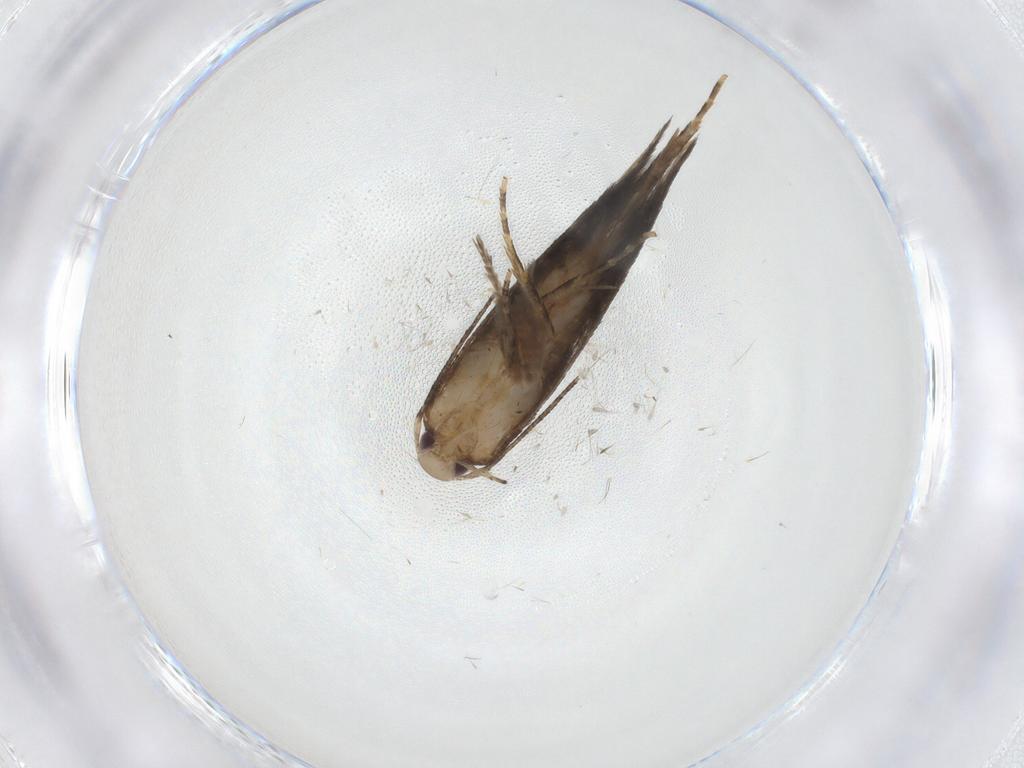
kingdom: Animalia
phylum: Arthropoda
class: Insecta
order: Lepidoptera
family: Cosmopterigidae
